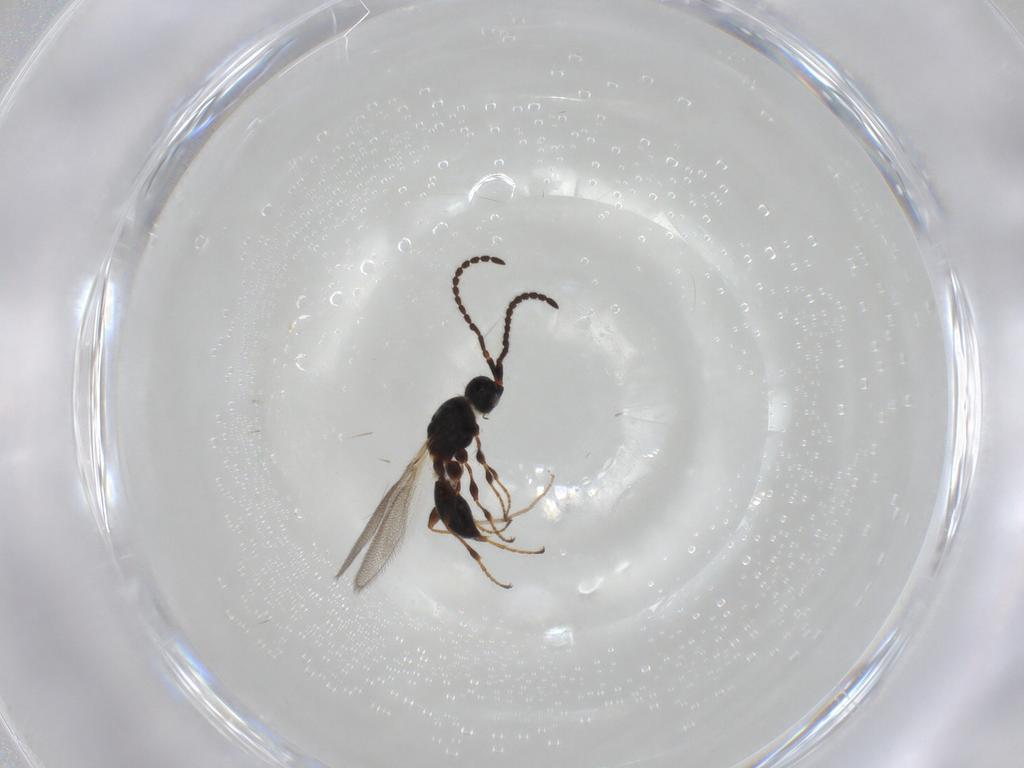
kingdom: Animalia
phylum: Arthropoda
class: Insecta
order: Hymenoptera
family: Diapriidae
